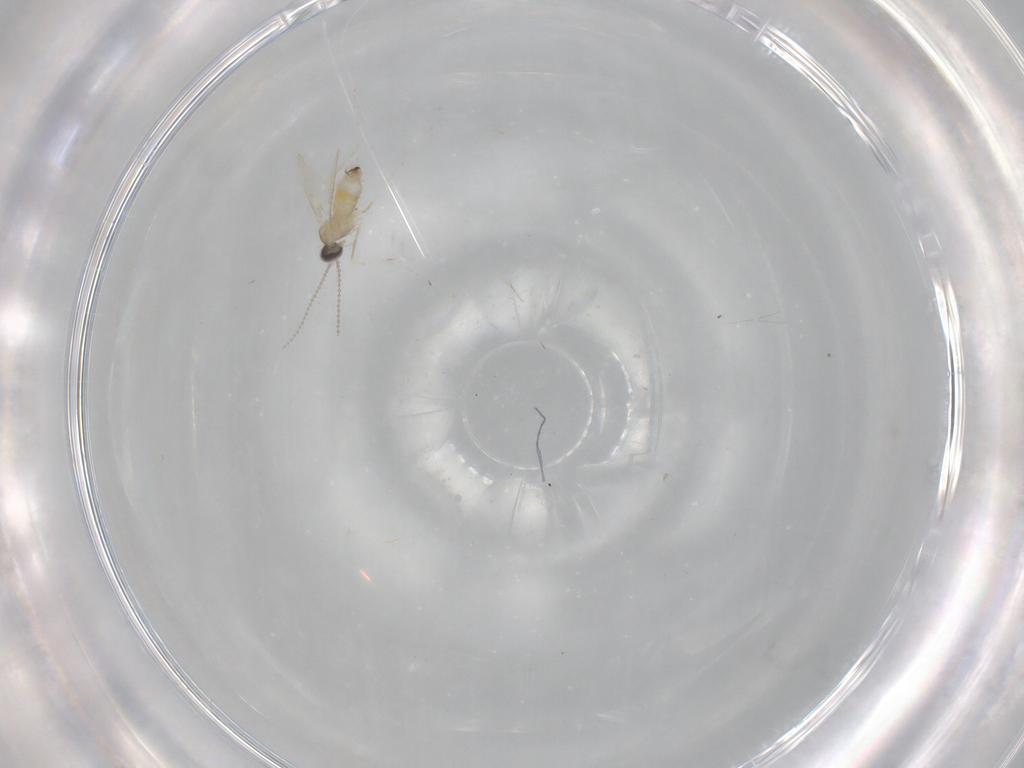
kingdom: Animalia
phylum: Arthropoda
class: Insecta
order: Diptera
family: Cecidomyiidae
